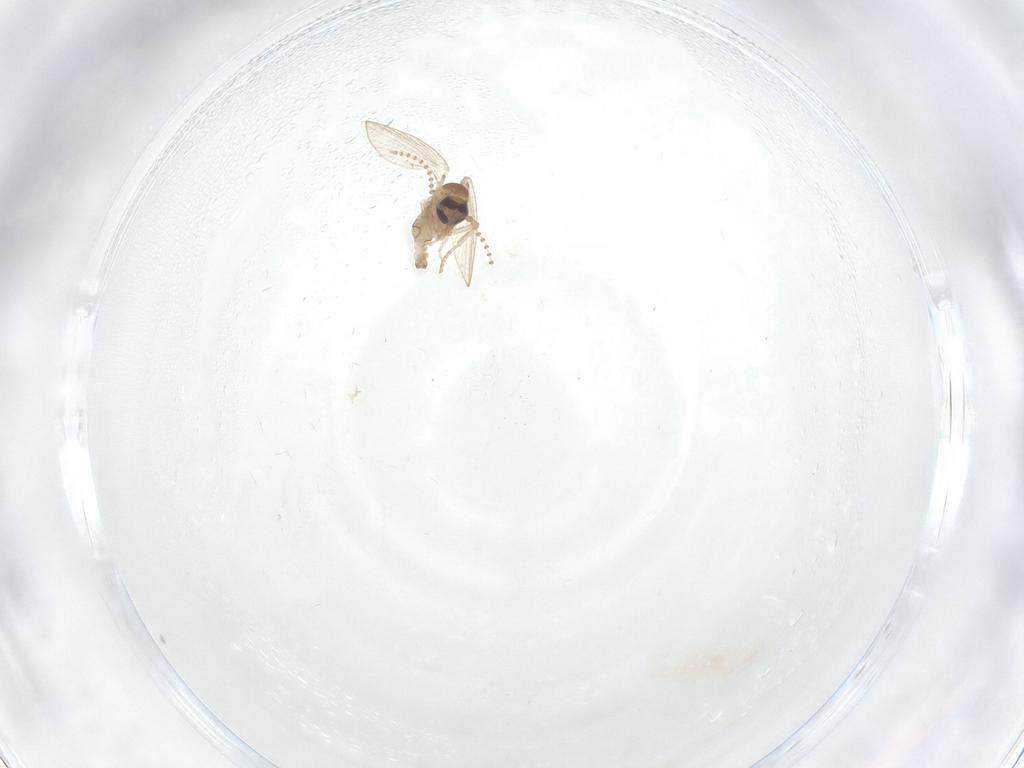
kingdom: Animalia
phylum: Arthropoda
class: Insecta
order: Diptera
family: Psychodidae
